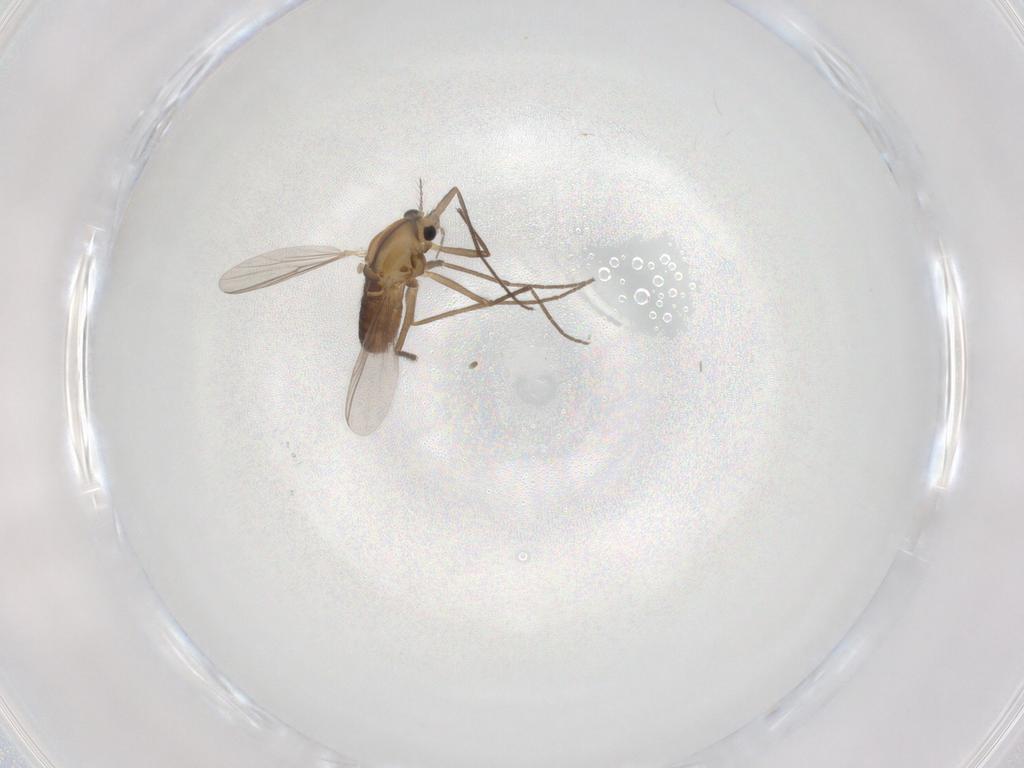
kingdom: Animalia
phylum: Arthropoda
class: Insecta
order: Diptera
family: Chironomidae
